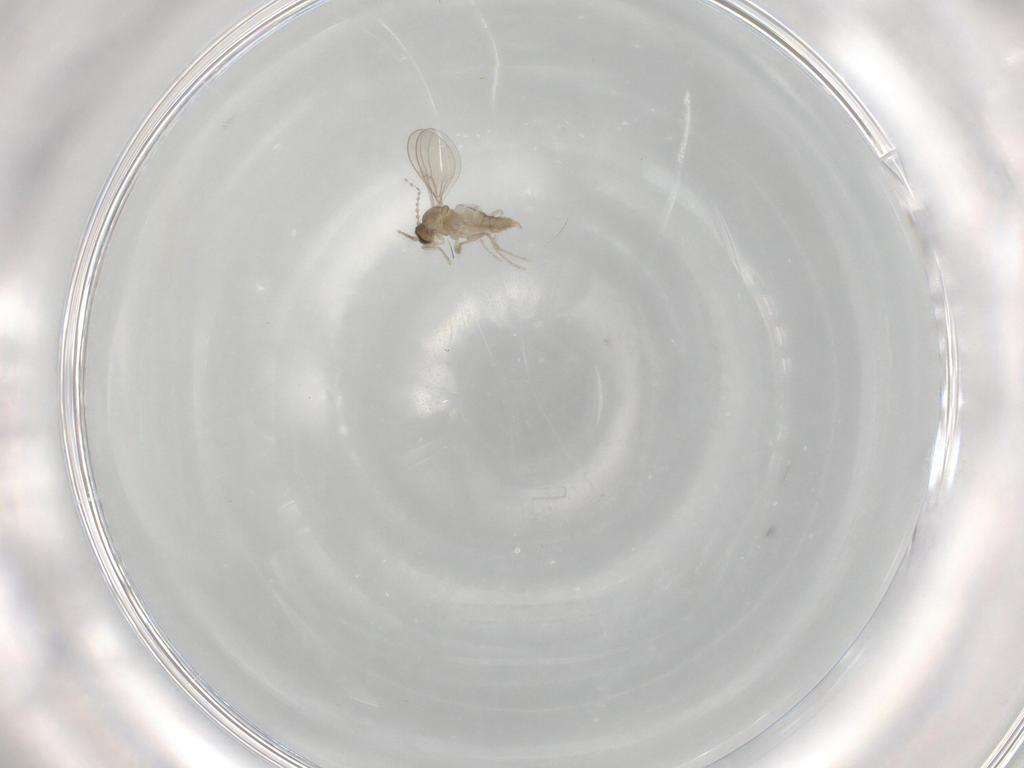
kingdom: Animalia
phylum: Arthropoda
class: Insecta
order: Diptera
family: Cecidomyiidae
